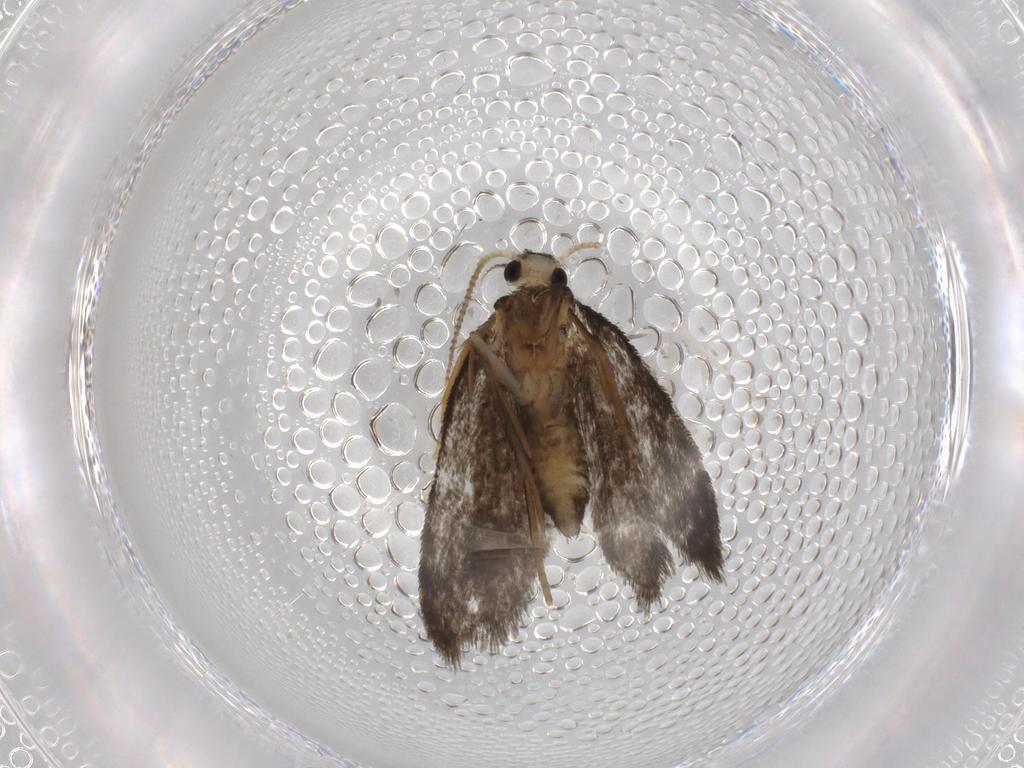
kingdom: Animalia
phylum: Arthropoda
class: Insecta
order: Lepidoptera
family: Psychidae
